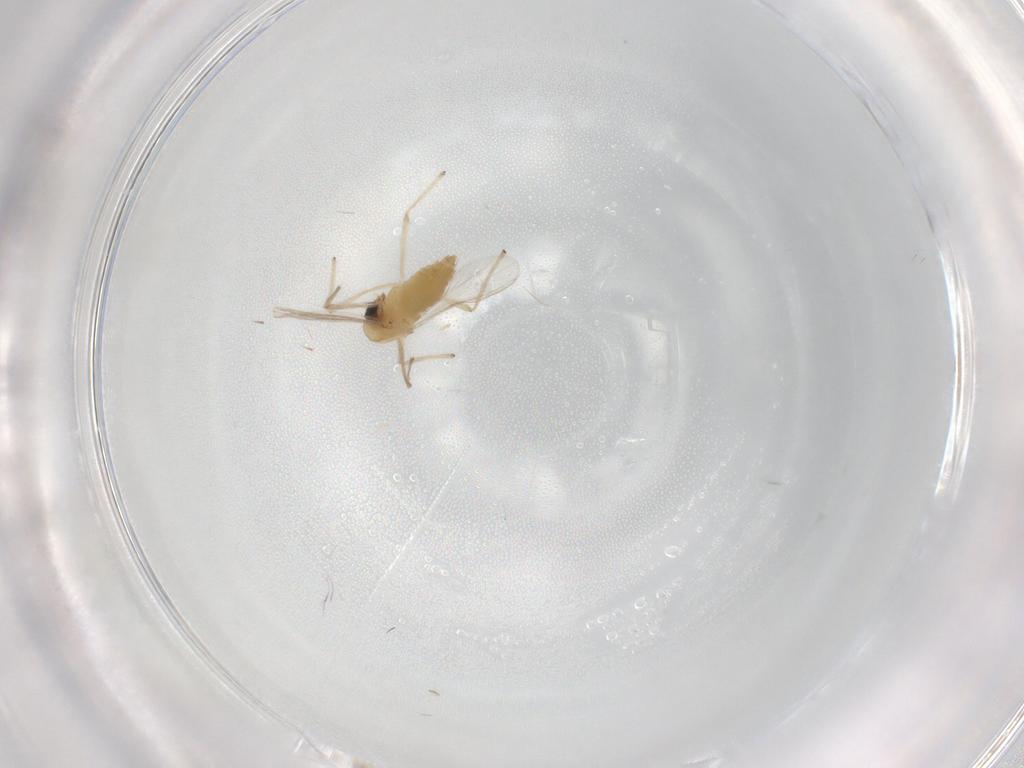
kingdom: Animalia
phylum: Arthropoda
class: Insecta
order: Diptera
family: Chironomidae
